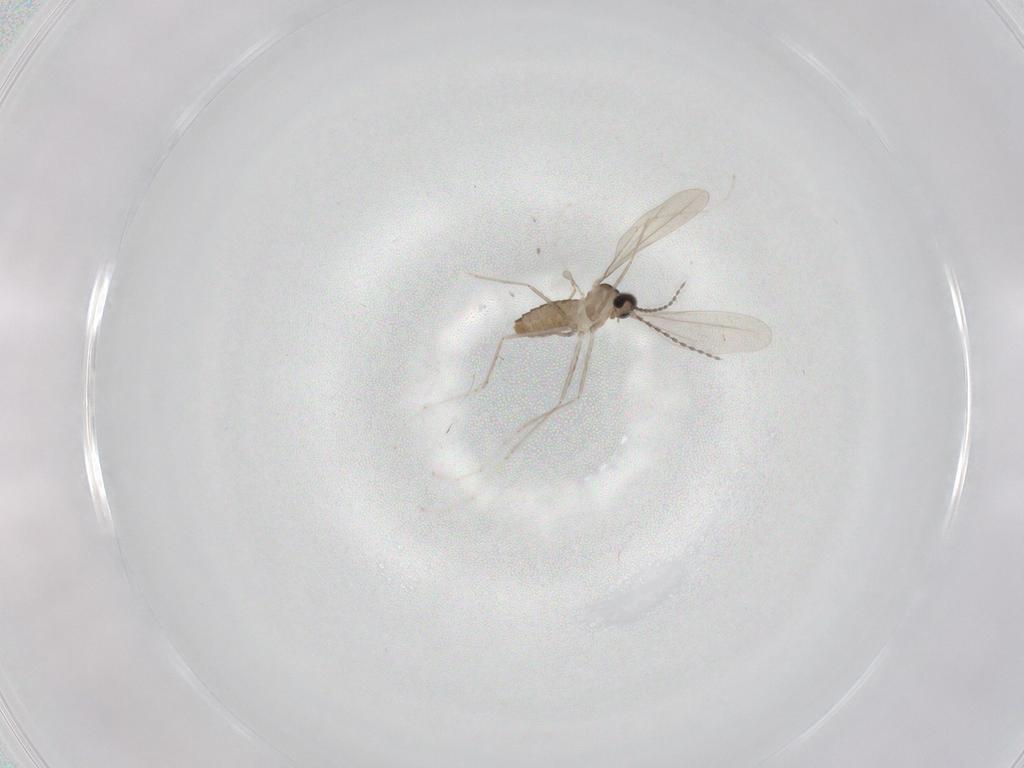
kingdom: Animalia
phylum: Arthropoda
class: Insecta
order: Diptera
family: Cecidomyiidae
